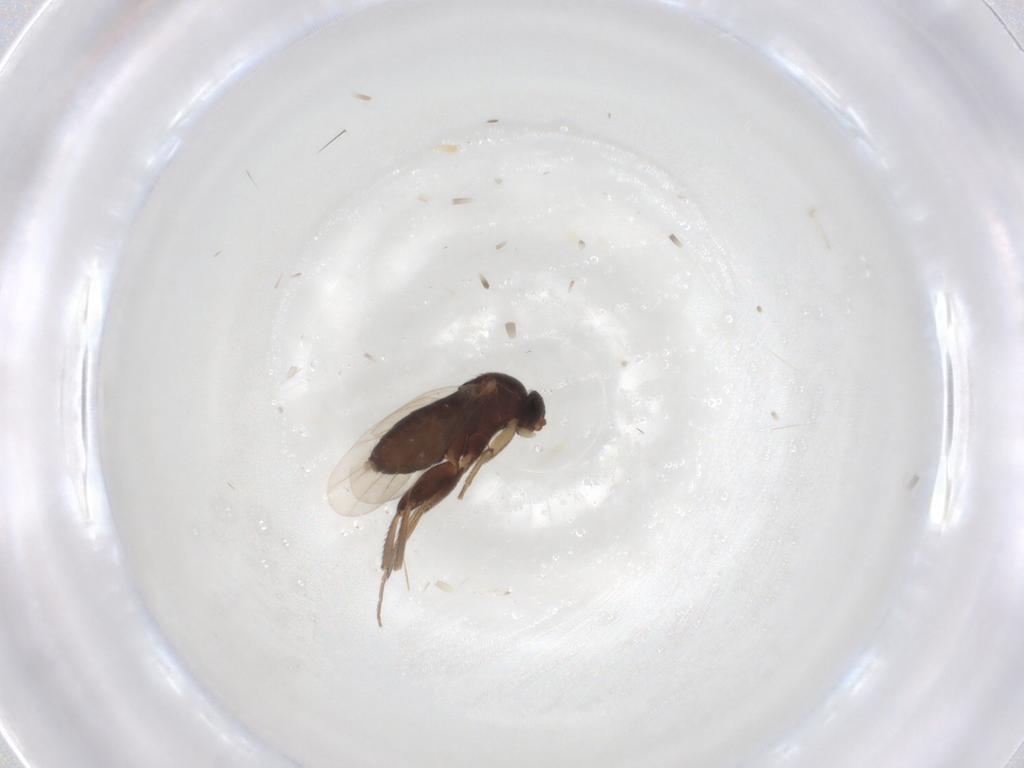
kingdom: Animalia
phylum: Arthropoda
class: Insecta
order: Diptera
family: Phoridae
